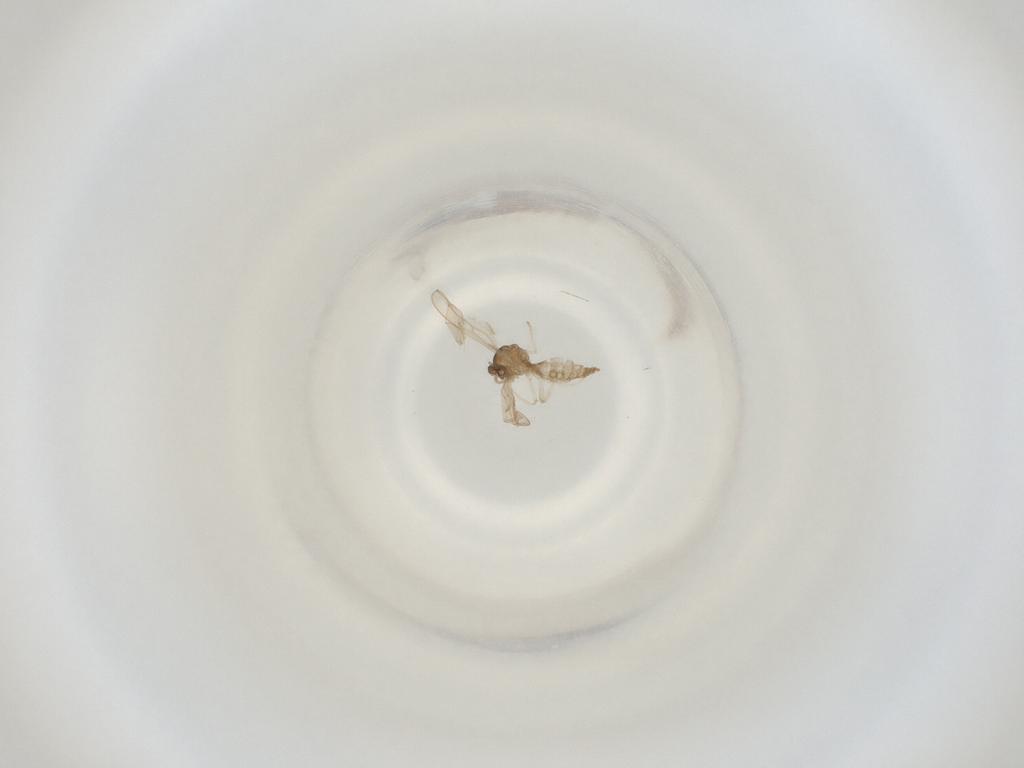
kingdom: Animalia
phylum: Arthropoda
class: Insecta
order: Diptera
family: Cecidomyiidae
